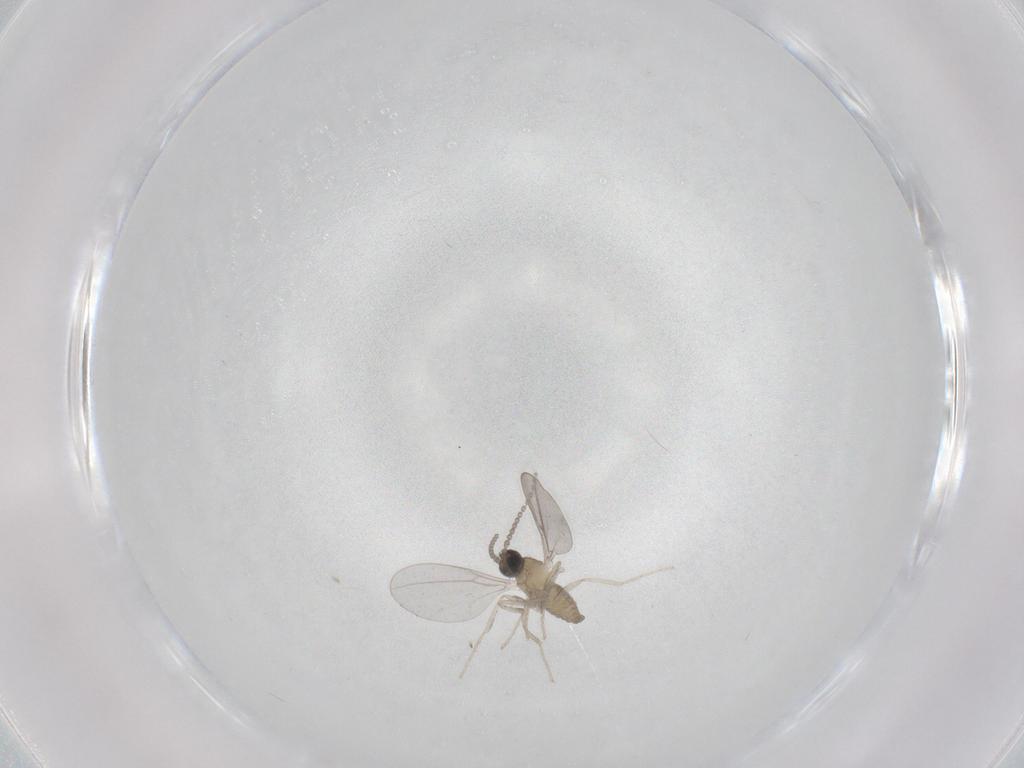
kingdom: Animalia
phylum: Arthropoda
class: Insecta
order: Diptera
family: Cecidomyiidae
